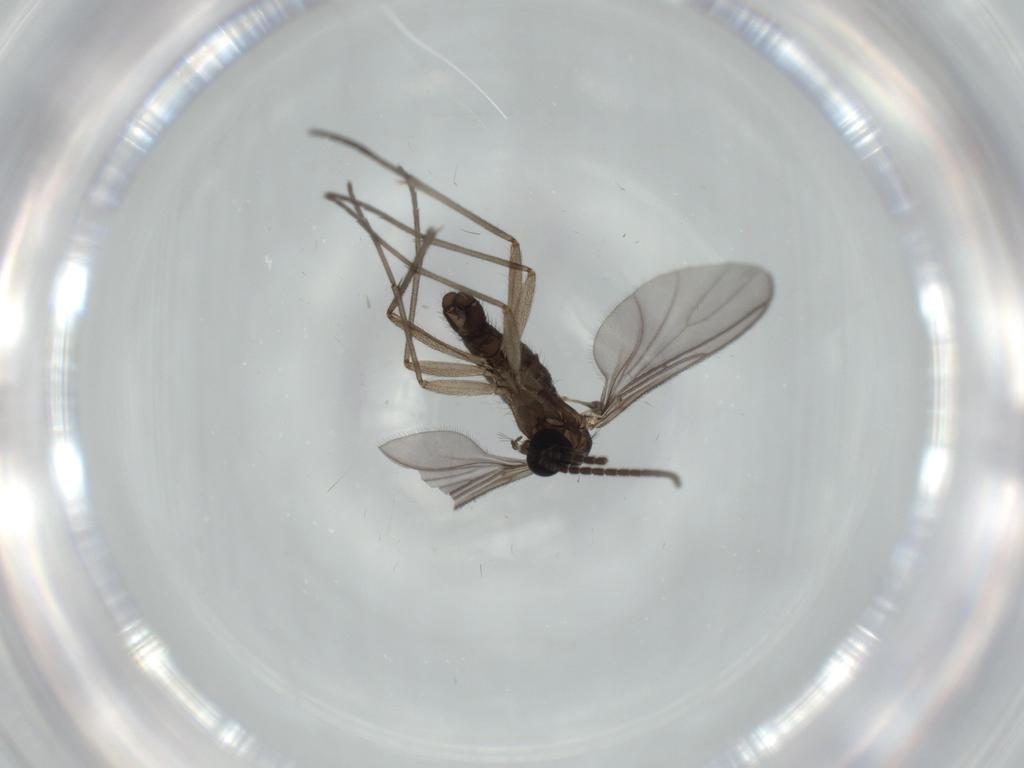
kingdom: Animalia
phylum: Arthropoda
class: Insecta
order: Diptera
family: Sciaridae
